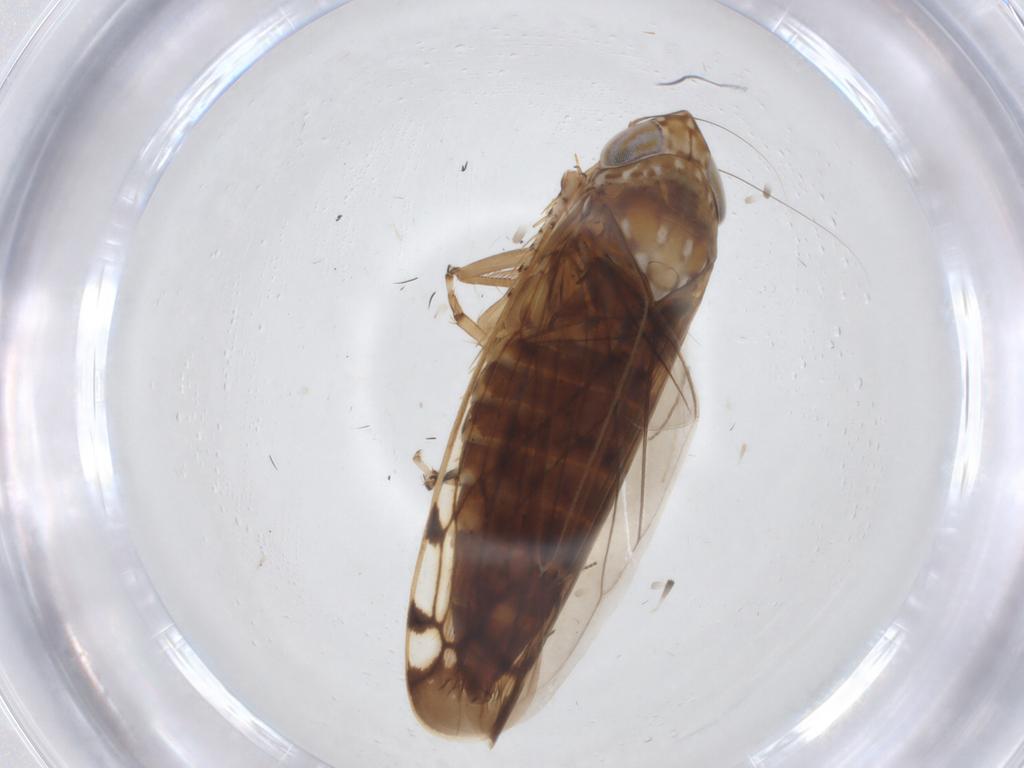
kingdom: Animalia
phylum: Arthropoda
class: Insecta
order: Hemiptera
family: Cicadellidae
